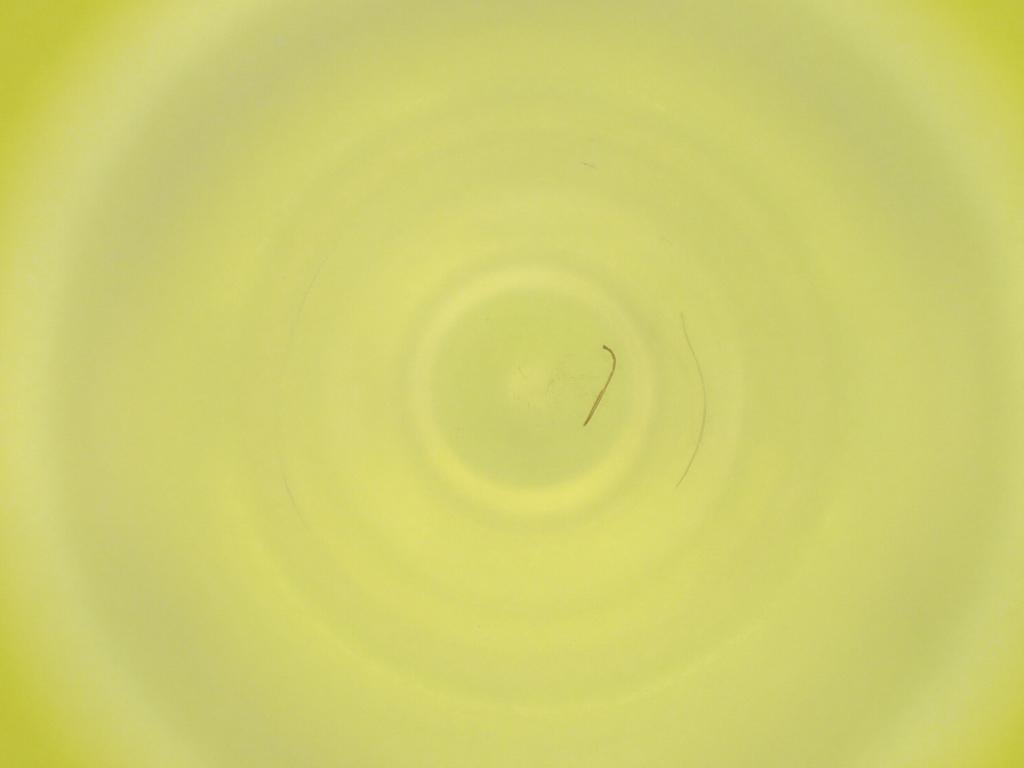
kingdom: Animalia
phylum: Arthropoda
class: Insecta
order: Diptera
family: Cecidomyiidae
